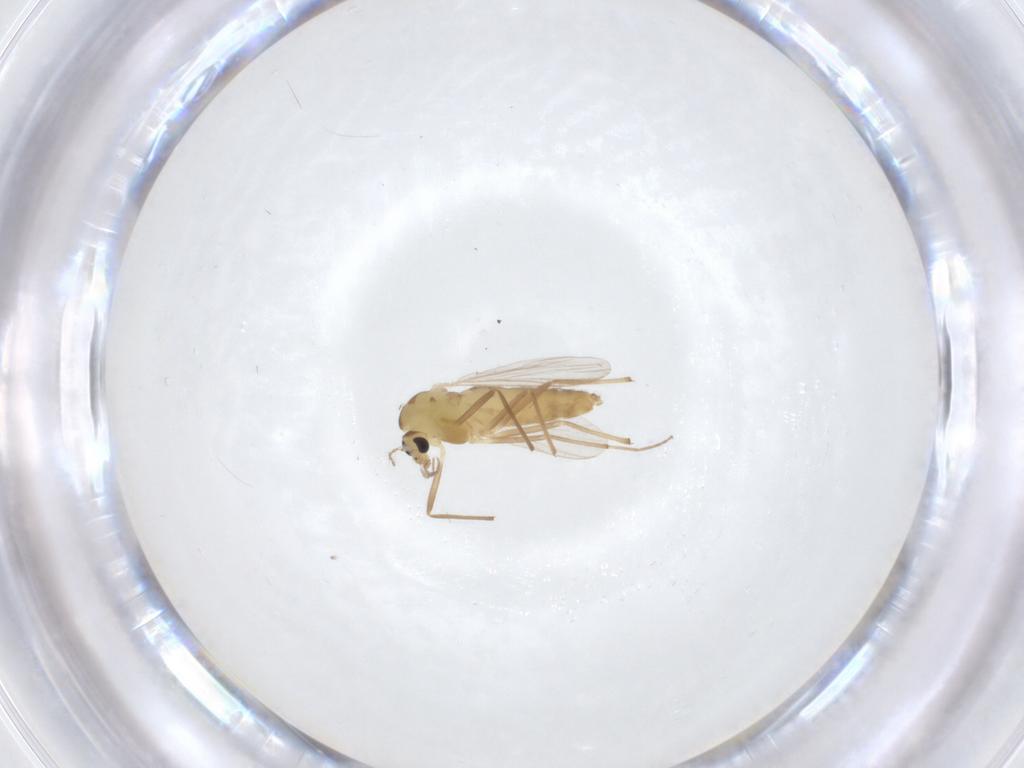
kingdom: Animalia
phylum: Arthropoda
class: Insecta
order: Diptera
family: Chironomidae
